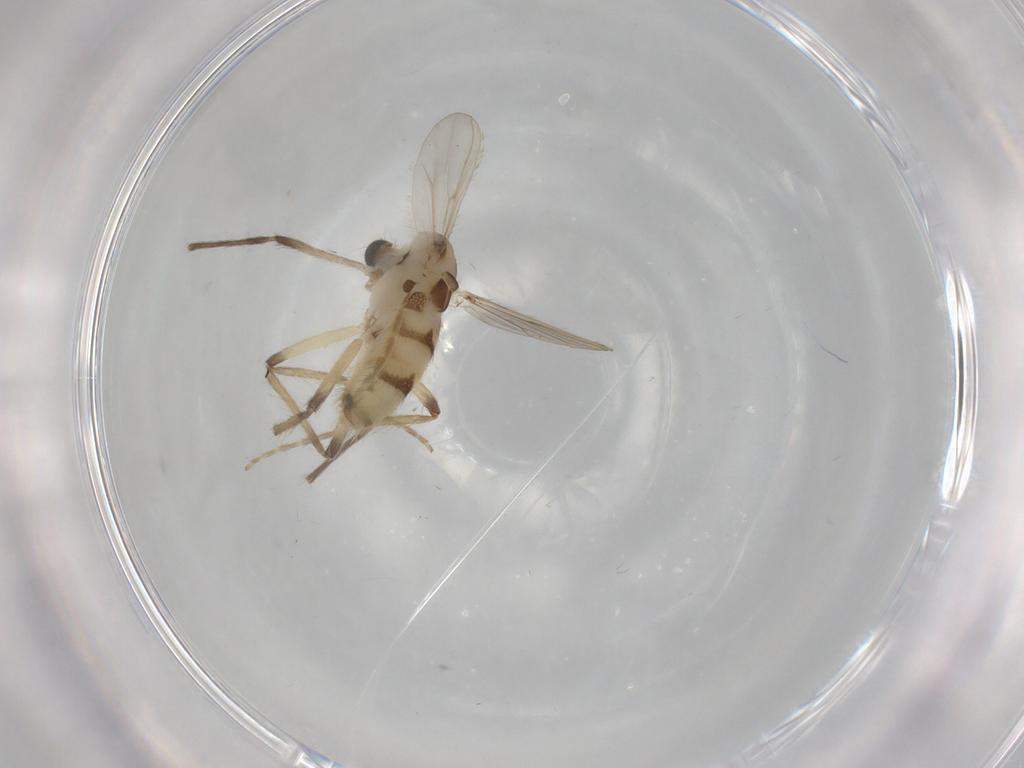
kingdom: Animalia
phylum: Arthropoda
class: Insecta
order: Diptera
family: Chironomidae
